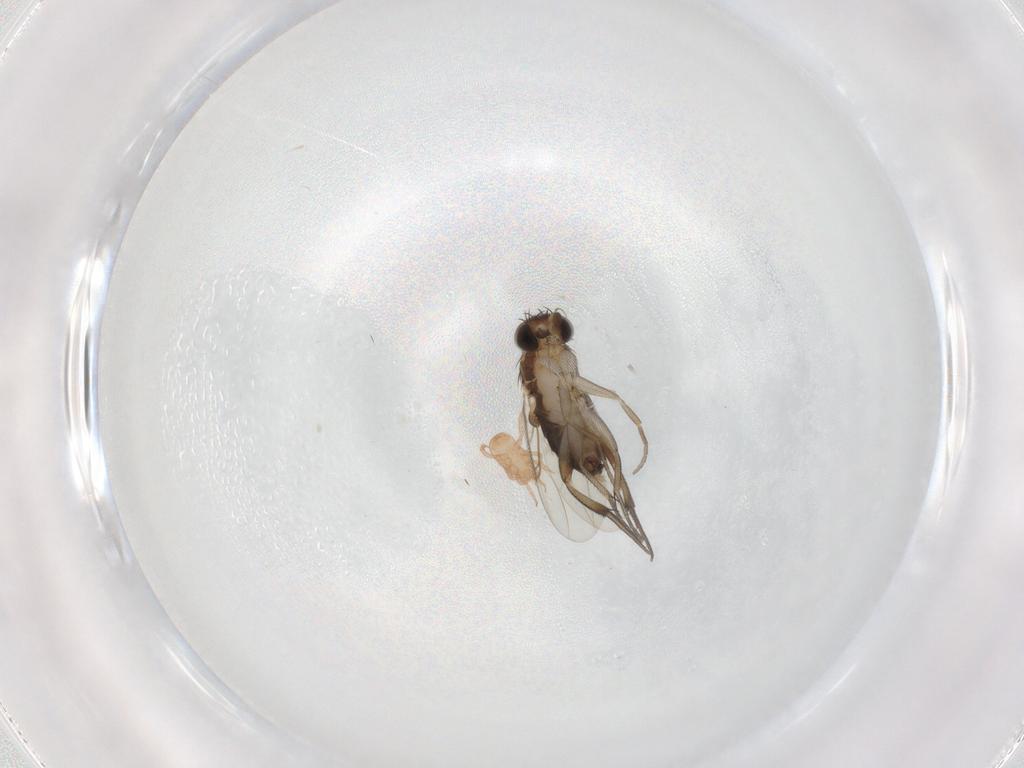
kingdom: Animalia
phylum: Arthropoda
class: Insecta
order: Diptera
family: Phoridae
